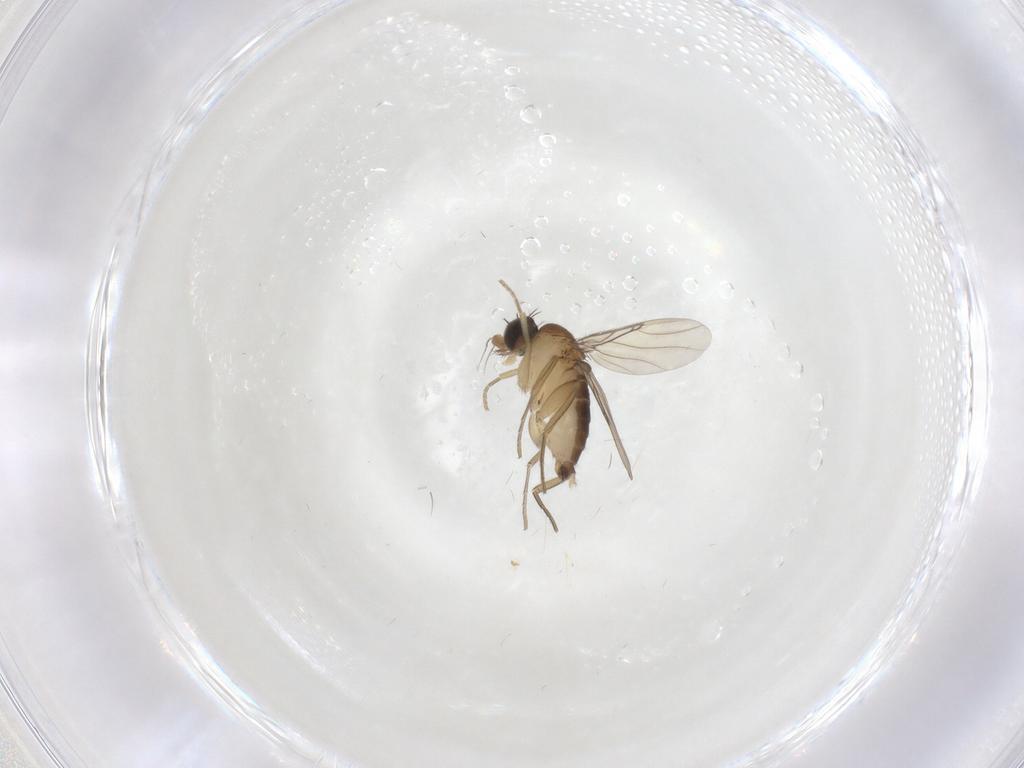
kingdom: Animalia
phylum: Arthropoda
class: Insecta
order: Diptera
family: Phoridae
